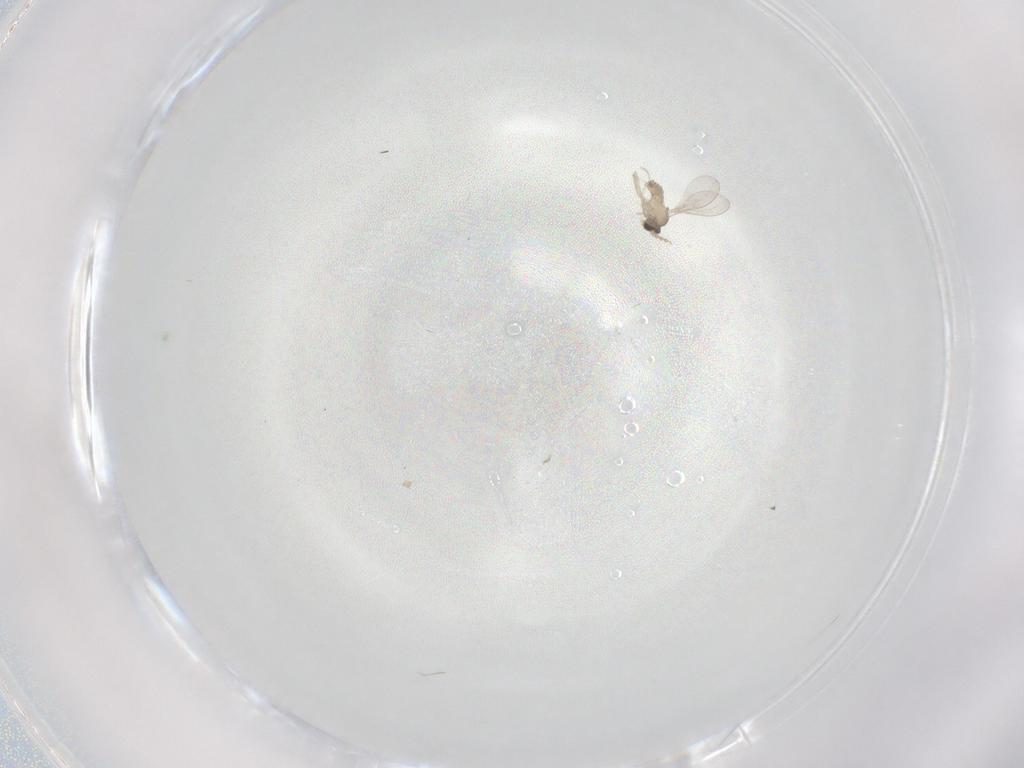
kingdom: Animalia
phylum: Arthropoda
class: Insecta
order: Diptera
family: Cecidomyiidae
